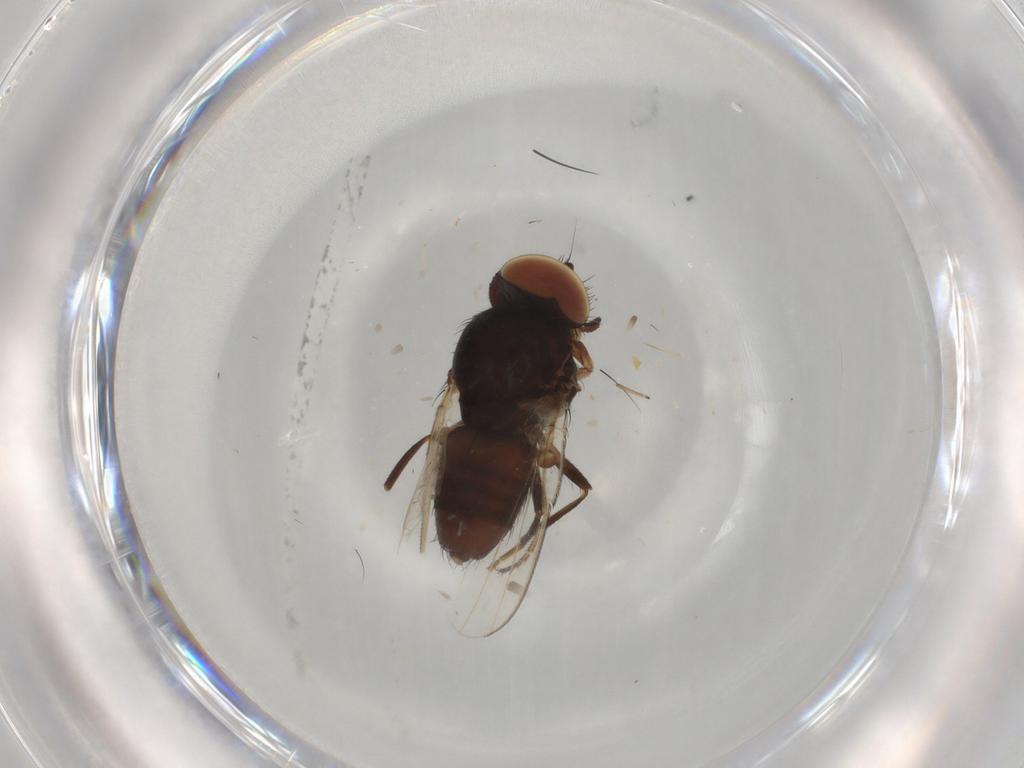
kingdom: Animalia
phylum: Arthropoda
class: Insecta
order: Diptera
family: Milichiidae
